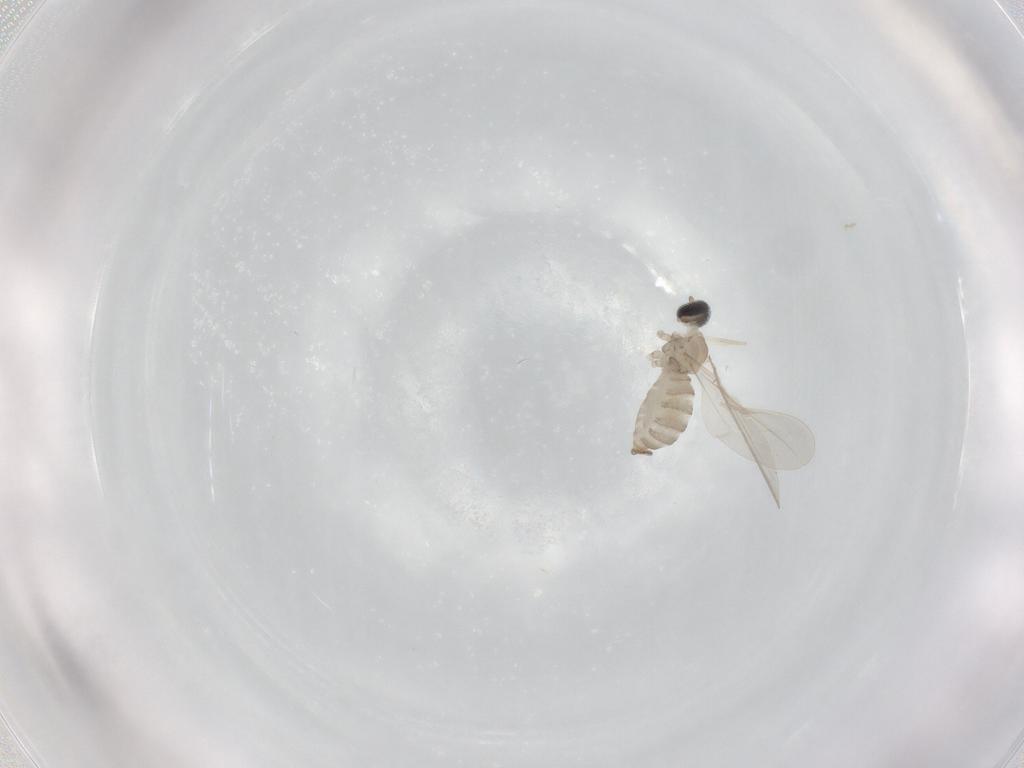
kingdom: Animalia
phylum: Arthropoda
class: Insecta
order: Diptera
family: Cecidomyiidae
